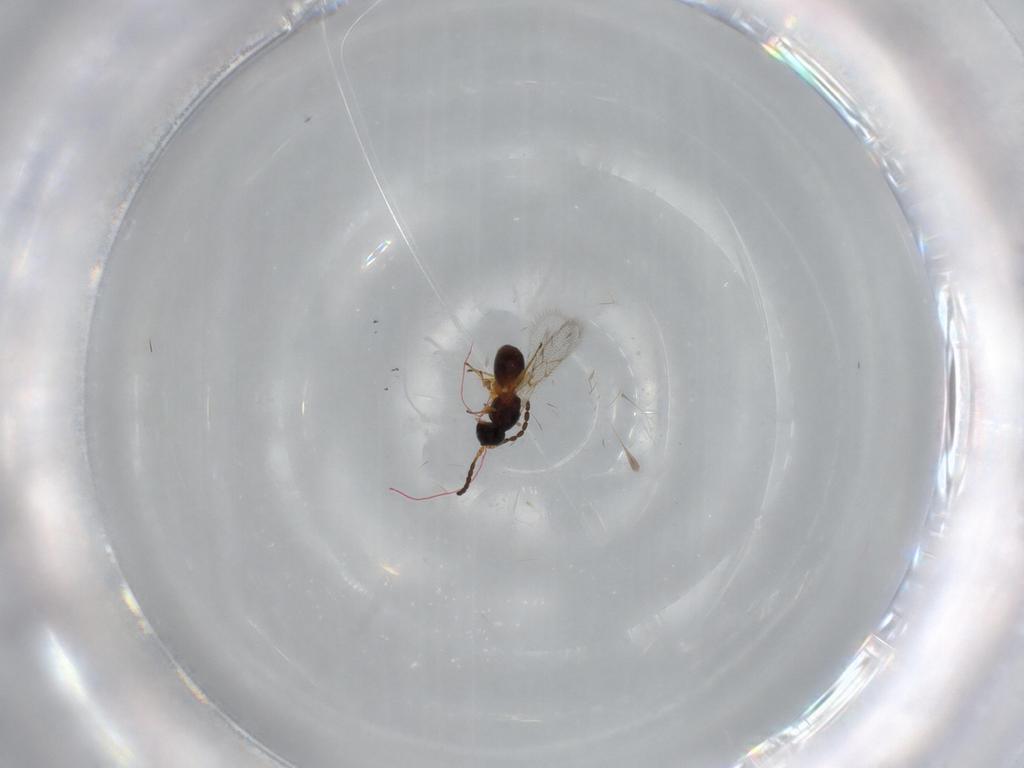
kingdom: Animalia
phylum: Arthropoda
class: Insecta
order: Hymenoptera
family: Figitidae
